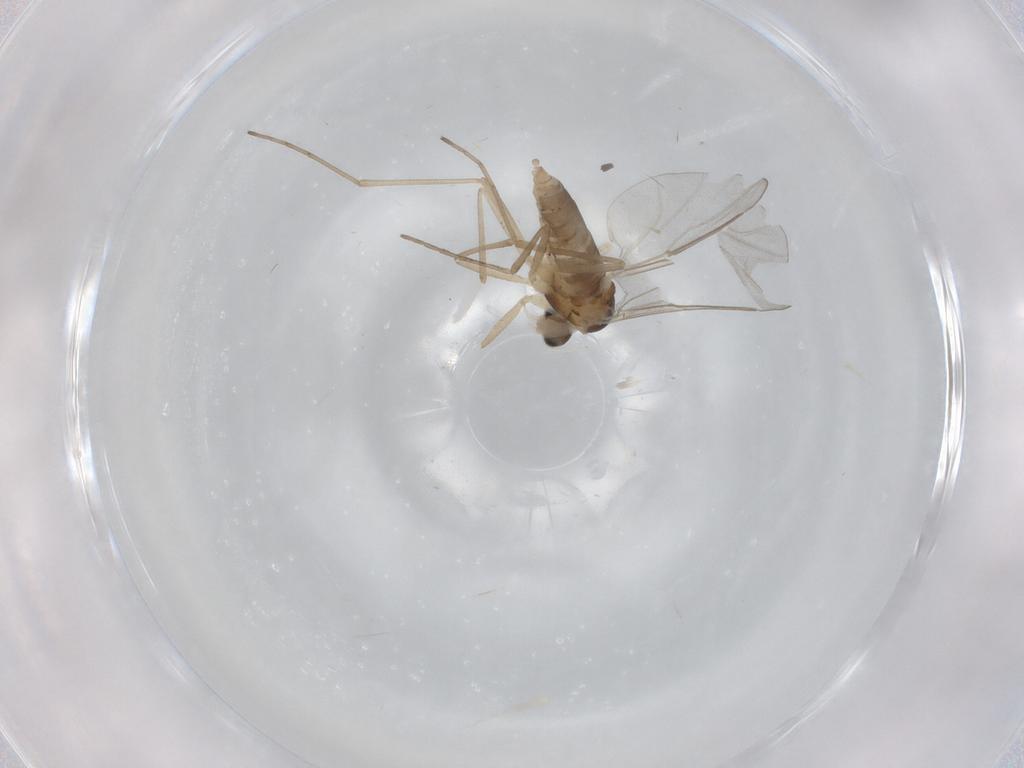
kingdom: Animalia
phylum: Arthropoda
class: Insecta
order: Diptera
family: Cecidomyiidae
